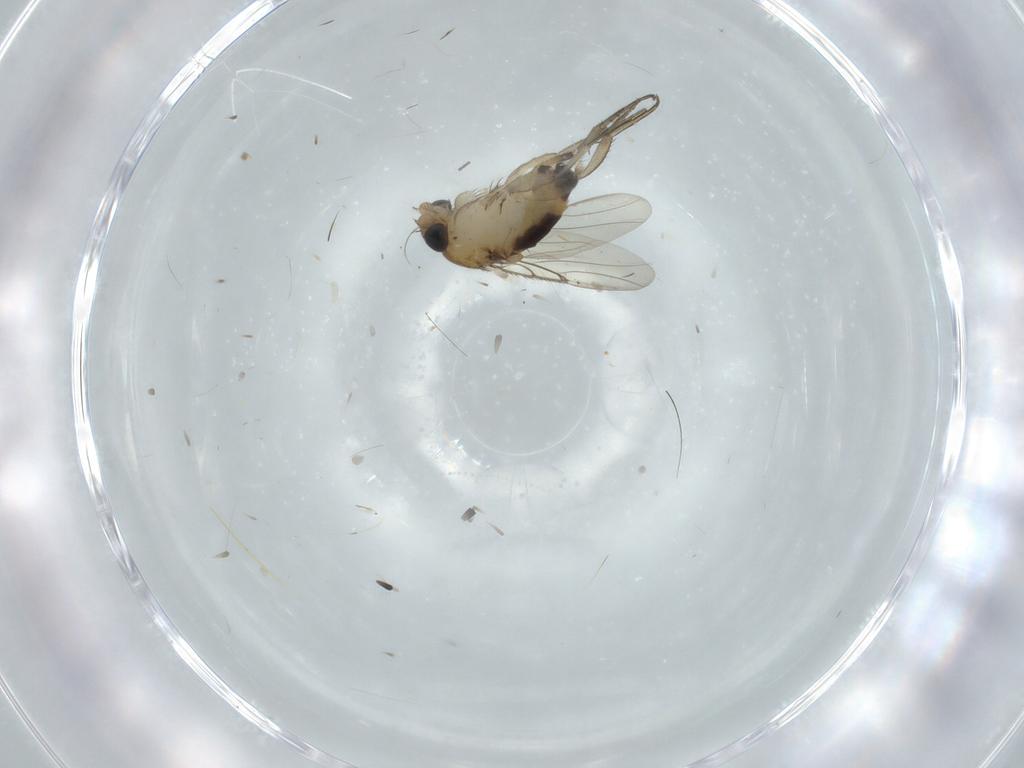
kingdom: Animalia
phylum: Arthropoda
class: Insecta
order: Diptera
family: Phoridae
